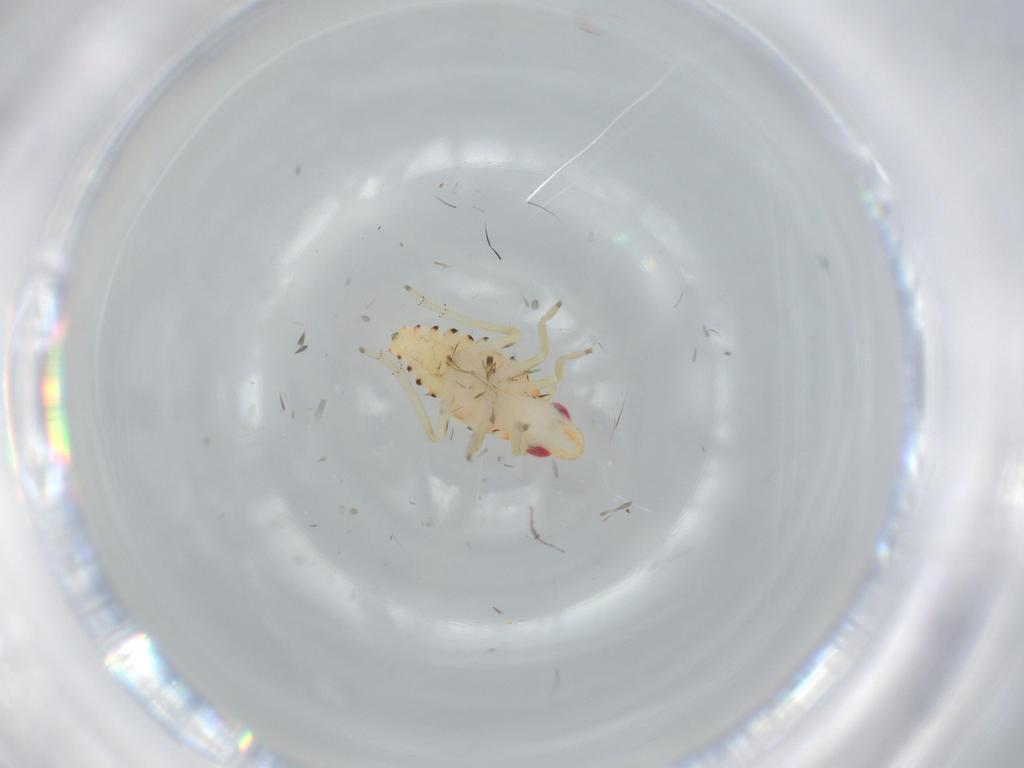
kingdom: Animalia
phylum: Arthropoda
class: Insecta
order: Hemiptera
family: Tropiduchidae
